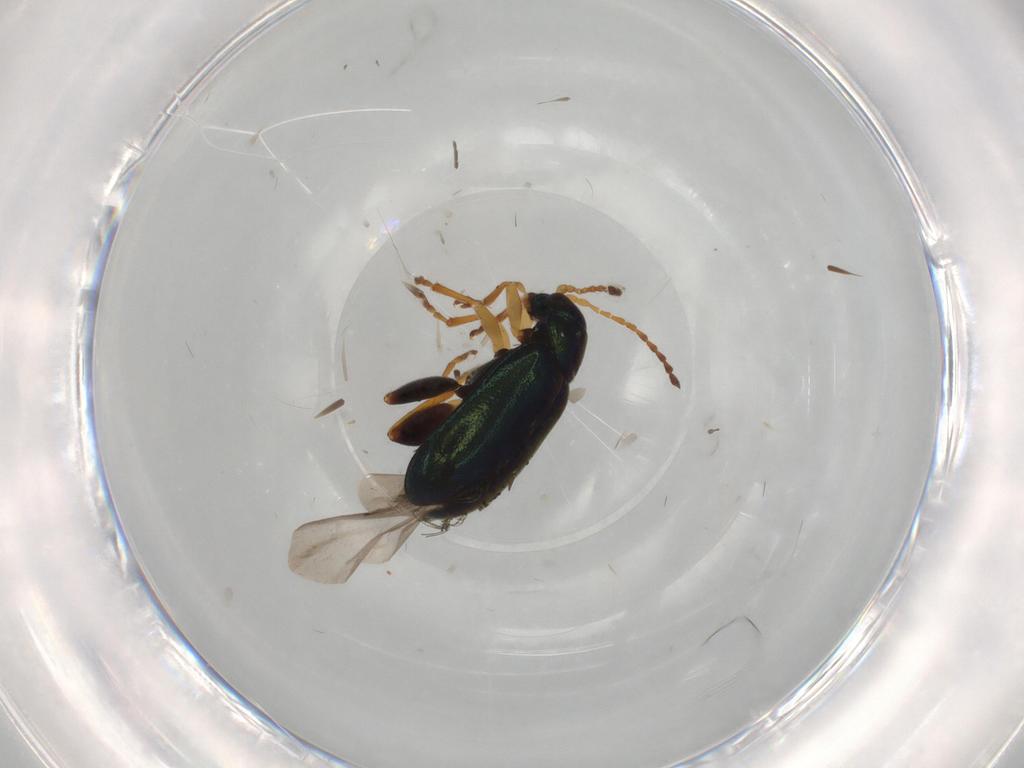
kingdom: Animalia
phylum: Arthropoda
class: Insecta
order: Coleoptera
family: Chrysomelidae
